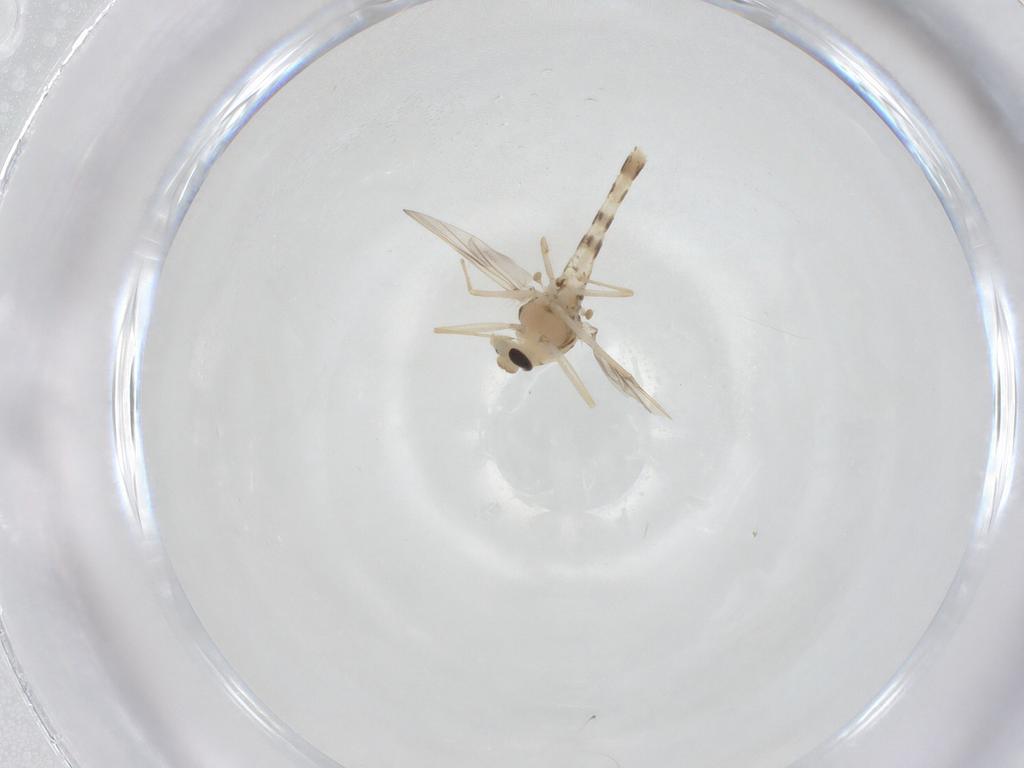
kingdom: Animalia
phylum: Arthropoda
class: Insecta
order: Diptera
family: Chironomidae
